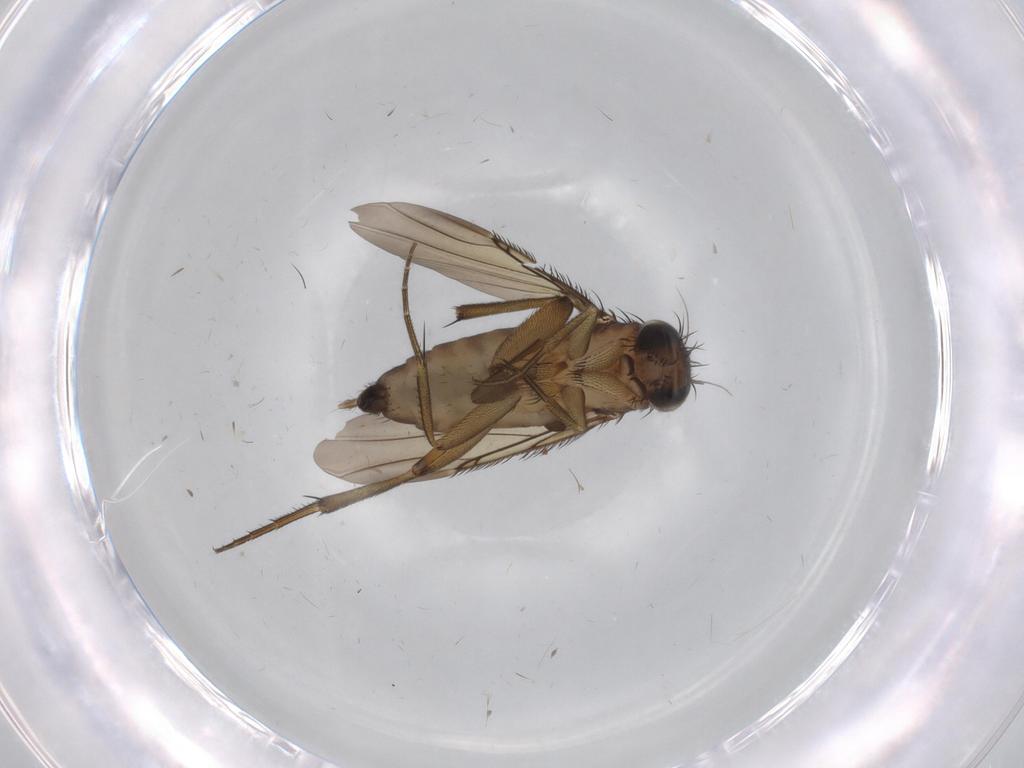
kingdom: Animalia
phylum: Arthropoda
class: Insecta
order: Diptera
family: Phoridae
